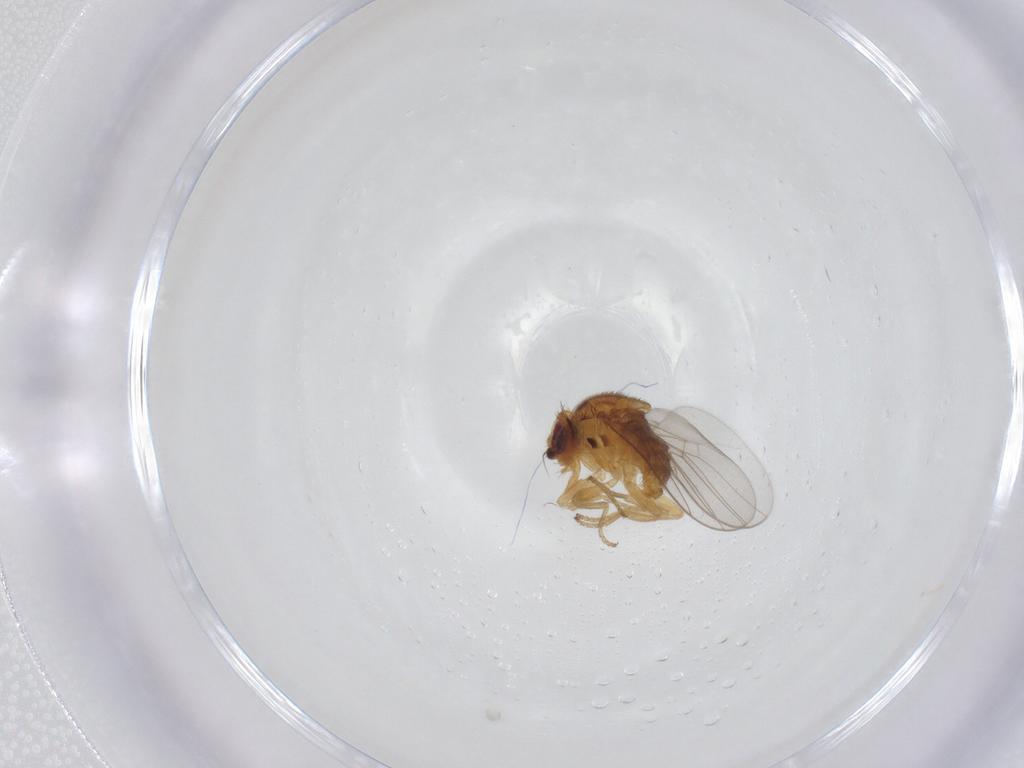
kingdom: Animalia
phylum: Arthropoda
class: Insecta
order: Diptera
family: Chloropidae
